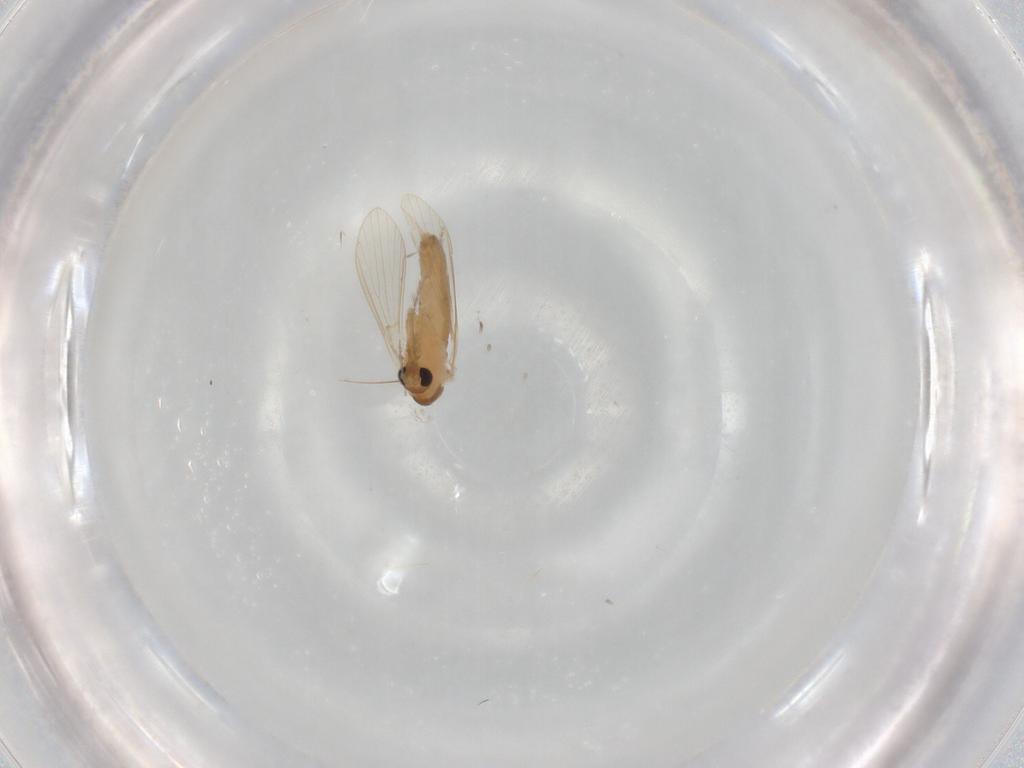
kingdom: Animalia
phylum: Arthropoda
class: Insecta
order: Diptera
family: Psychodidae
